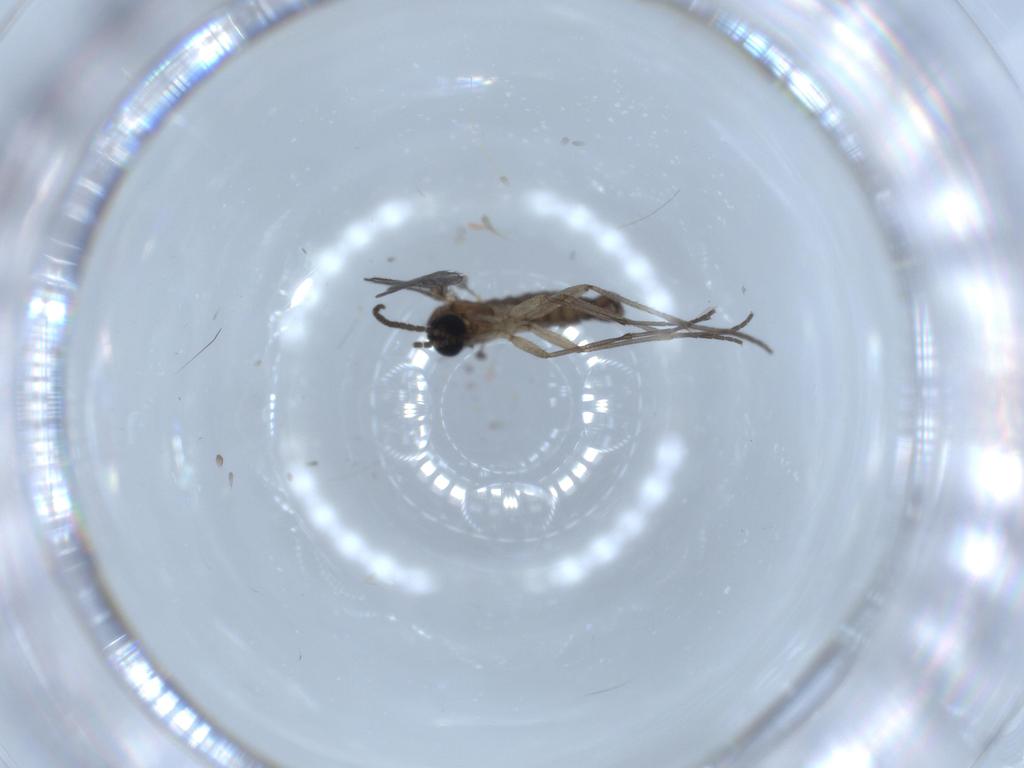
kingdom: Animalia
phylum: Arthropoda
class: Insecta
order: Diptera
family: Sciaridae
